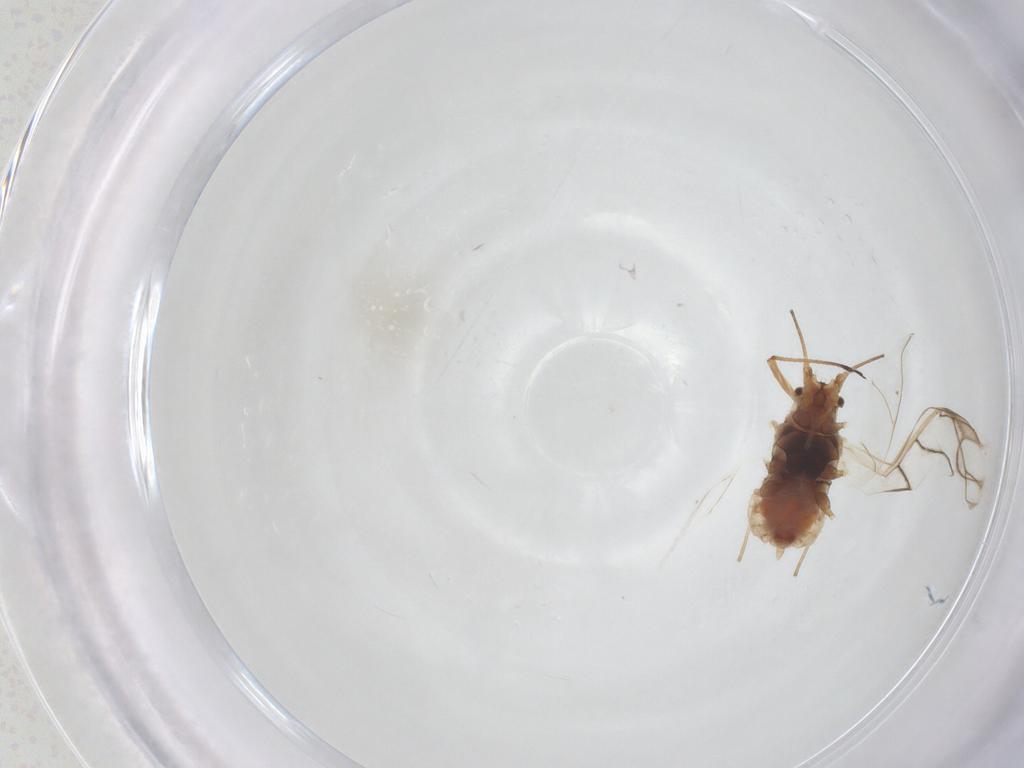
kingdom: Animalia
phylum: Arthropoda
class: Insecta
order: Hemiptera
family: Aphididae
